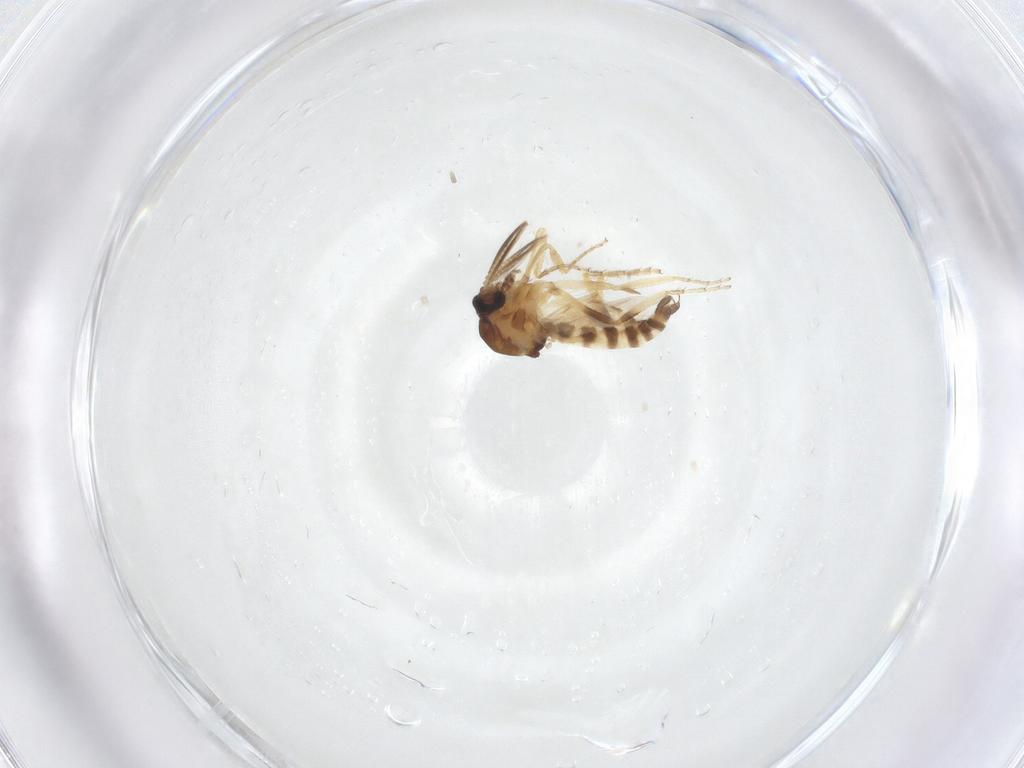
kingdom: Animalia
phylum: Arthropoda
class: Insecta
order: Diptera
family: Ceratopogonidae
